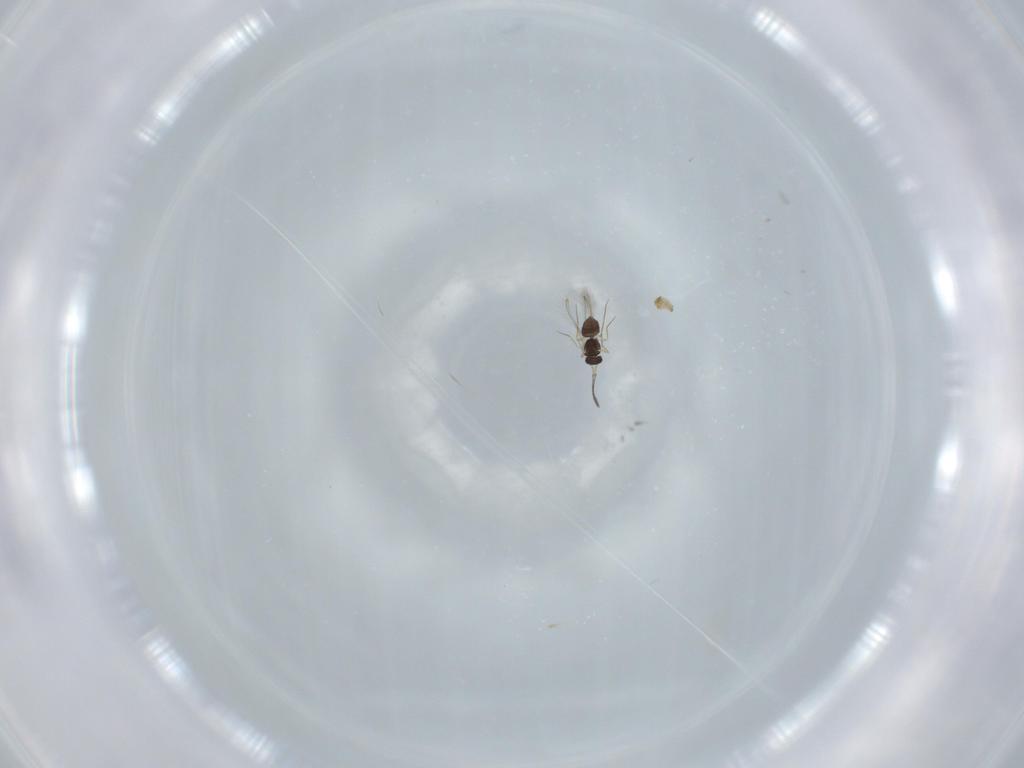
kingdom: Animalia
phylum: Arthropoda
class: Insecta
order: Hymenoptera
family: Mymaridae
